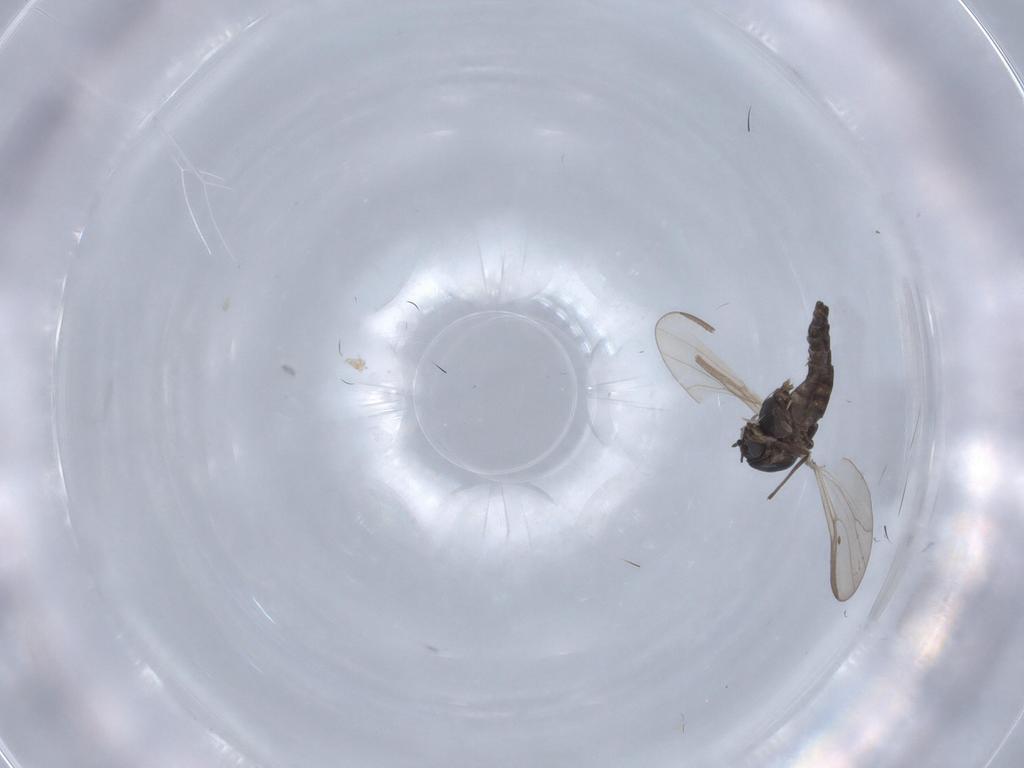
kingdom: Animalia
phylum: Arthropoda
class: Insecta
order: Diptera
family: Chironomidae
